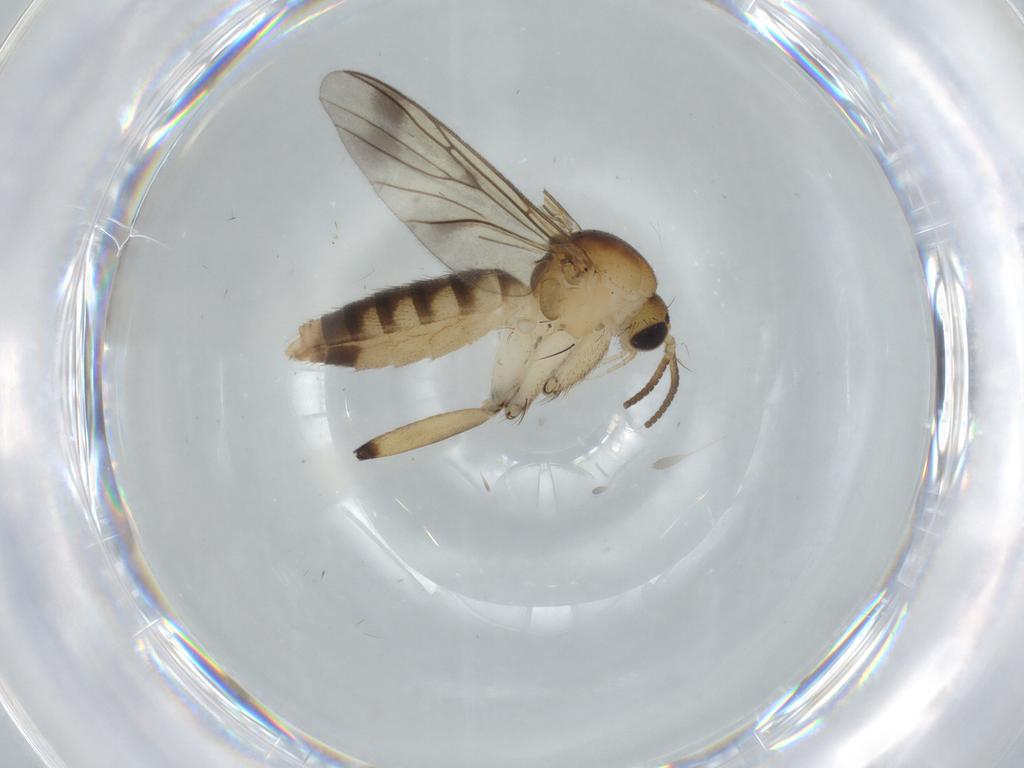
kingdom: Animalia
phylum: Arthropoda
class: Insecta
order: Diptera
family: Mycetophilidae
